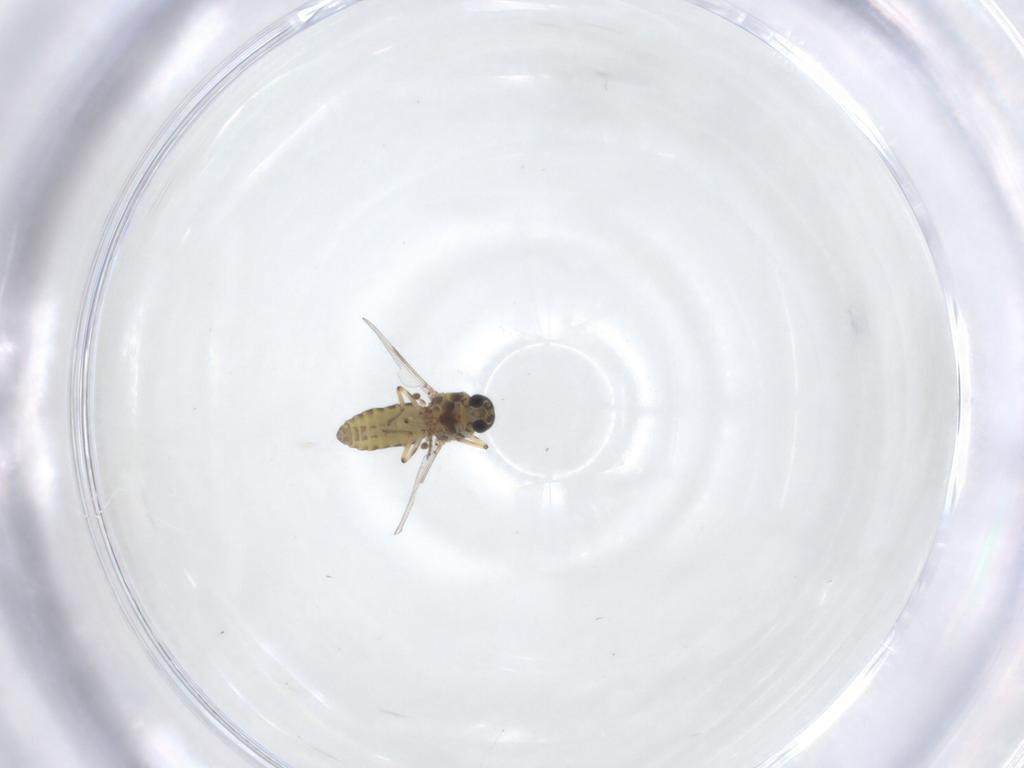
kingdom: Animalia
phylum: Arthropoda
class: Insecta
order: Diptera
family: Ceratopogonidae
